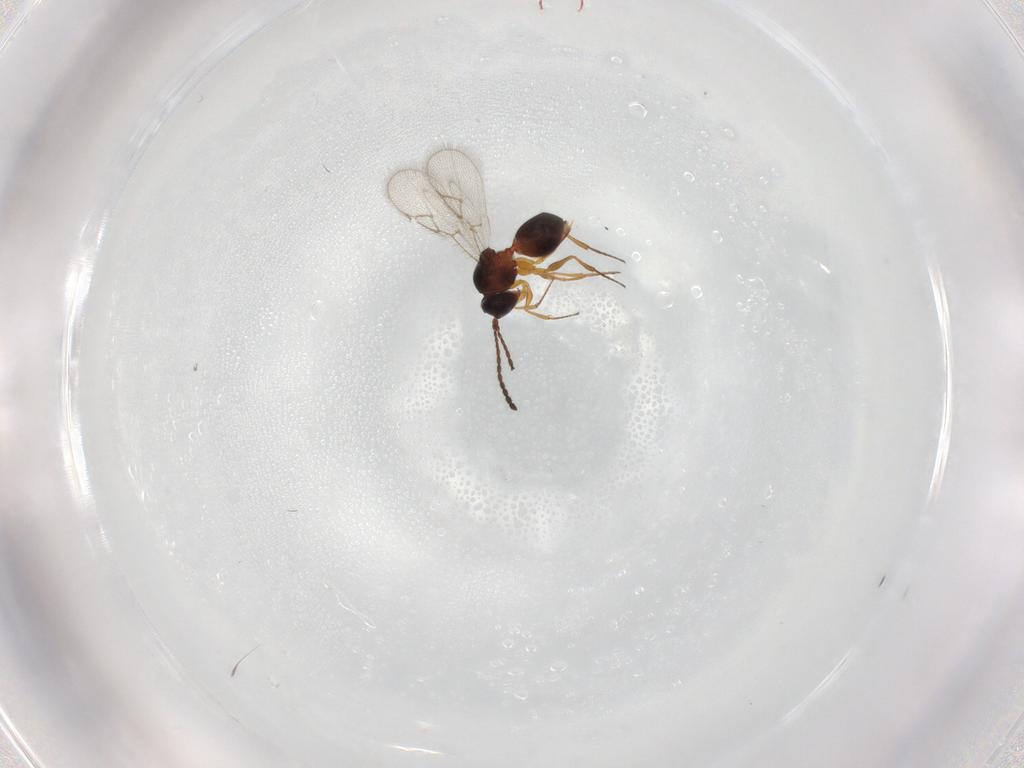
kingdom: Animalia
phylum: Arthropoda
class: Insecta
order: Hymenoptera
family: Figitidae
